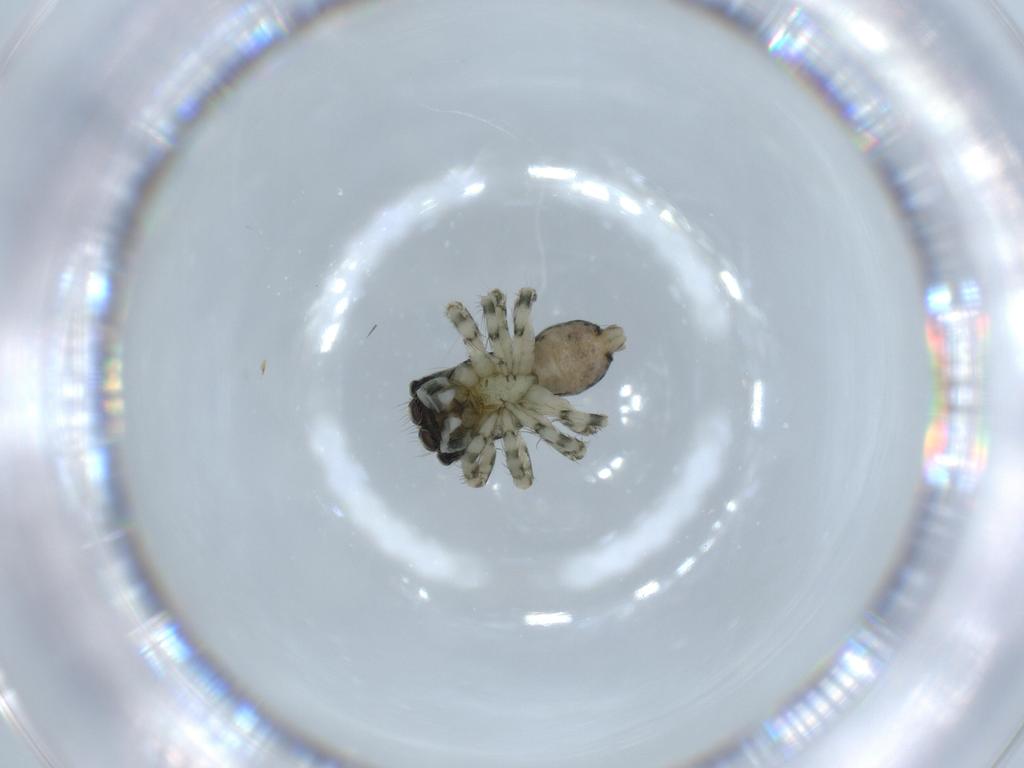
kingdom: Animalia
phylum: Arthropoda
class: Arachnida
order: Araneae
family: Salticidae
